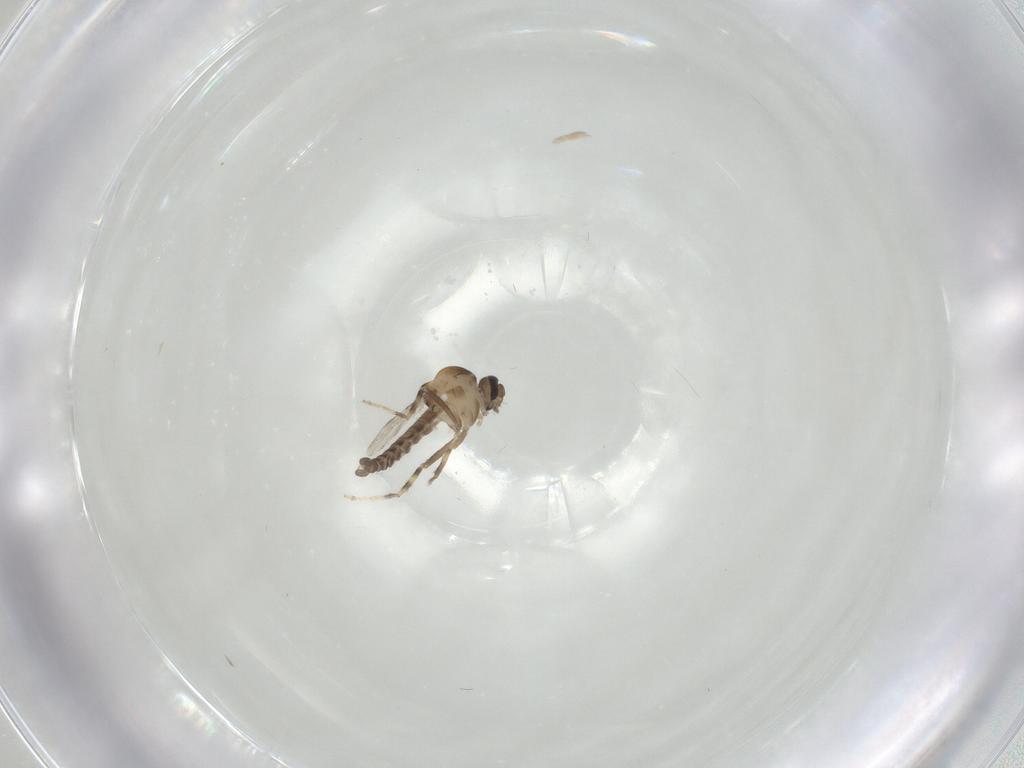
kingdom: Animalia
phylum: Arthropoda
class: Insecta
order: Diptera
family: Ceratopogonidae
